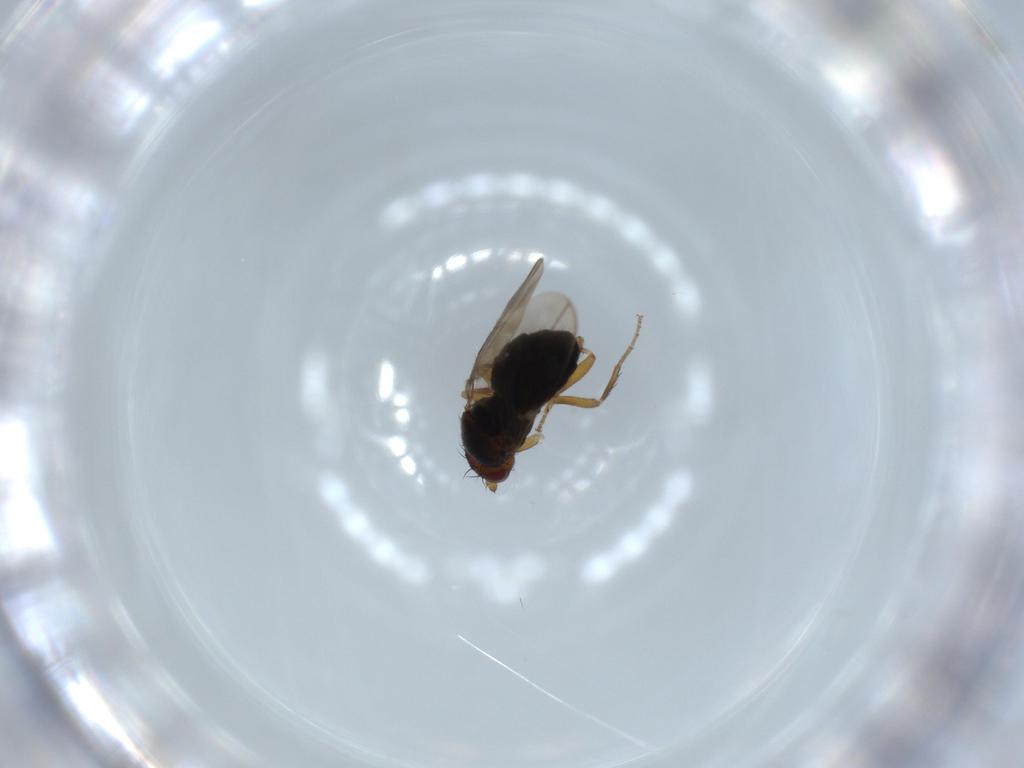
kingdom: Animalia
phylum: Arthropoda
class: Insecta
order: Diptera
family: Sphaeroceridae
